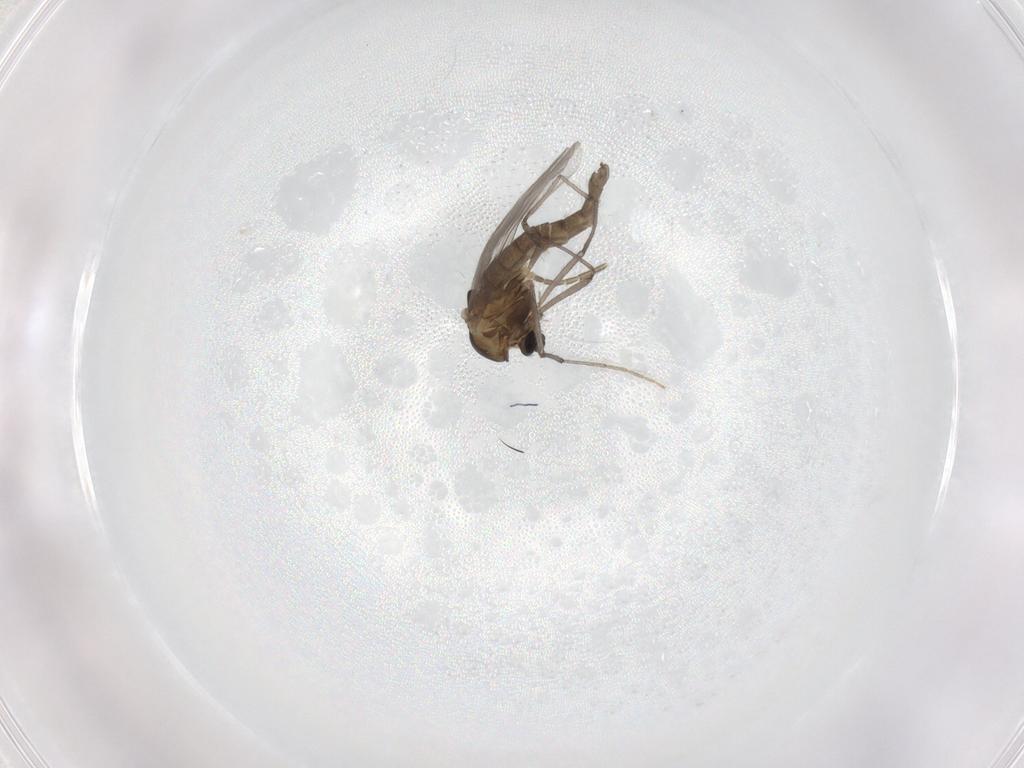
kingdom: Animalia
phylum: Arthropoda
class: Insecta
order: Diptera
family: Chironomidae
